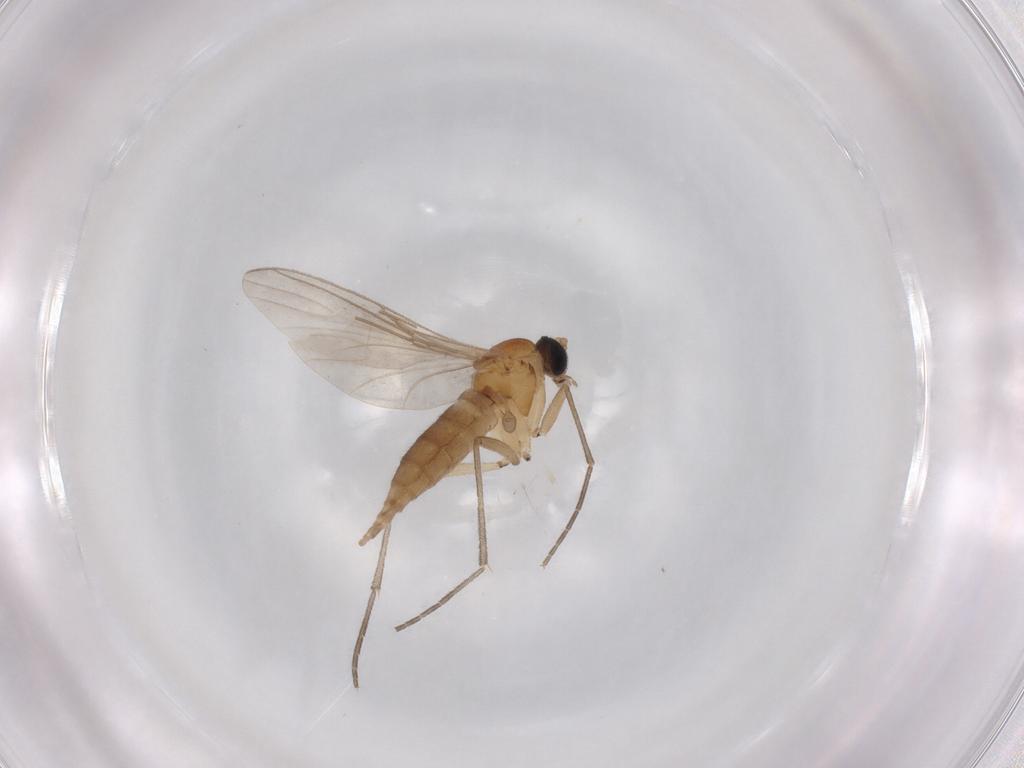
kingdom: Animalia
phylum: Arthropoda
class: Insecta
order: Diptera
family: Sciaridae
